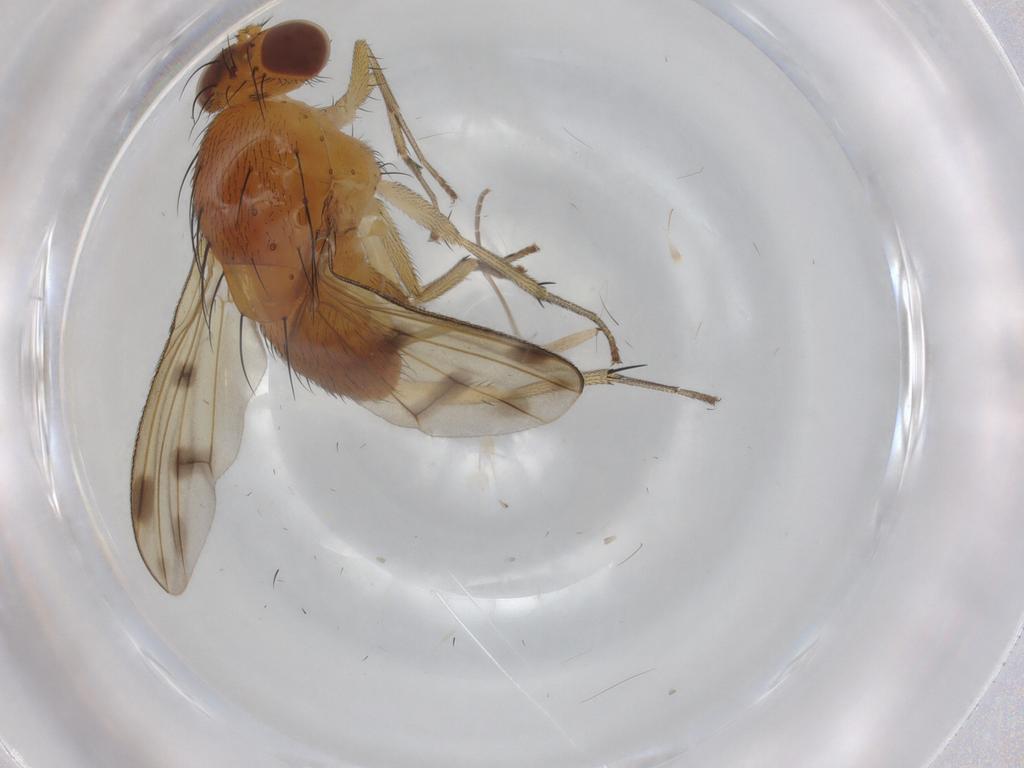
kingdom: Animalia
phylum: Arthropoda
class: Insecta
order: Diptera
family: Sciaridae
